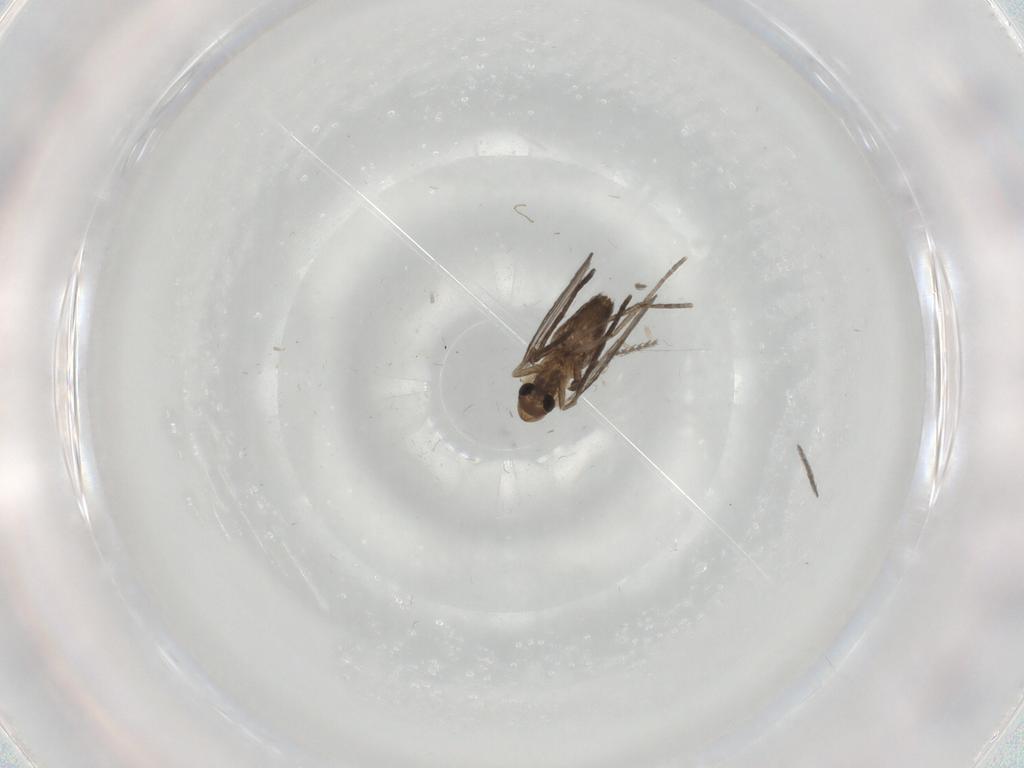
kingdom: Animalia
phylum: Arthropoda
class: Insecta
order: Diptera
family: Psychodidae
